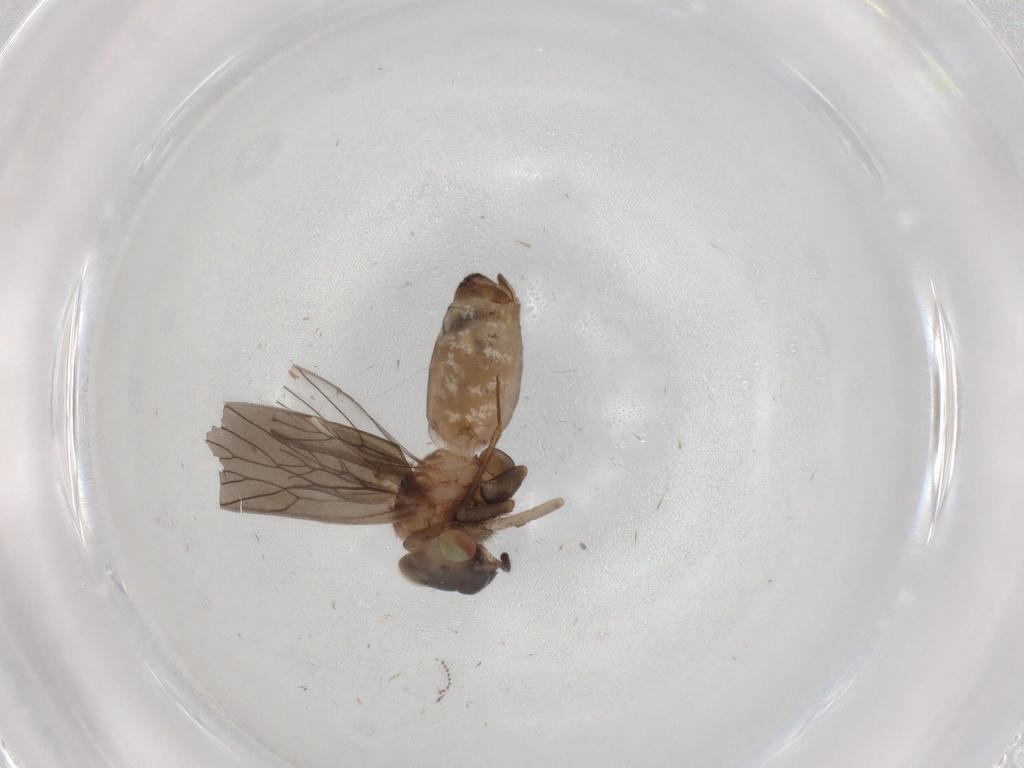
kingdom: Animalia
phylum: Arthropoda
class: Insecta
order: Psocodea
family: Lepidopsocidae
